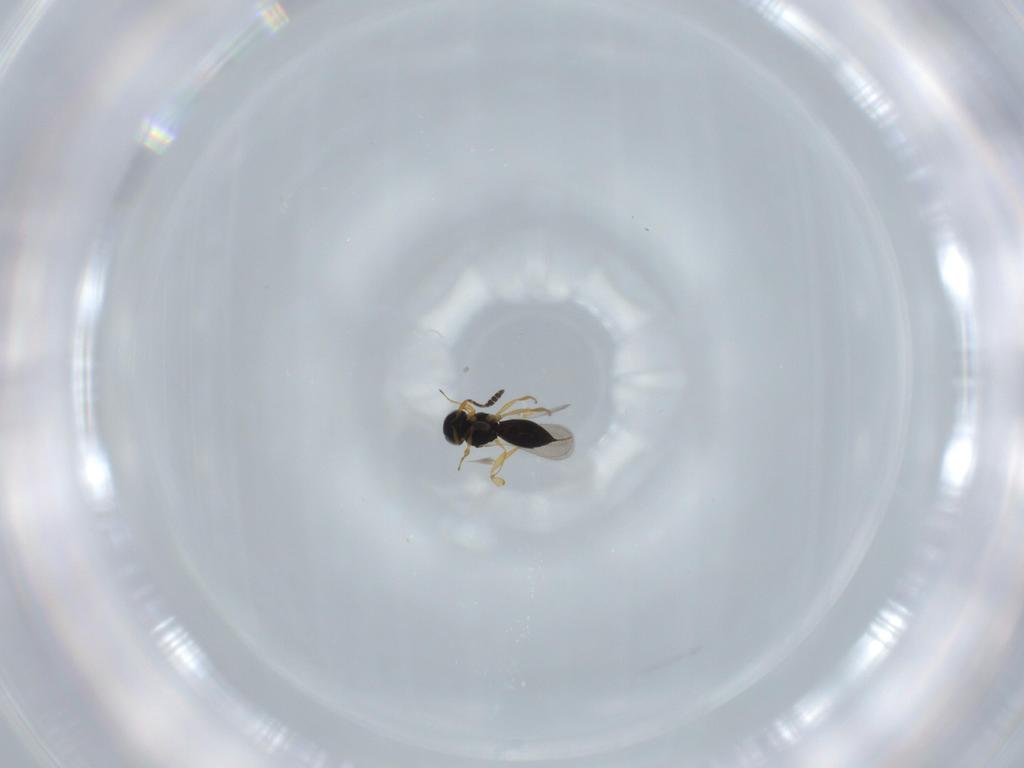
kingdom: Animalia
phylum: Arthropoda
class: Insecta
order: Hymenoptera
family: Scelionidae
